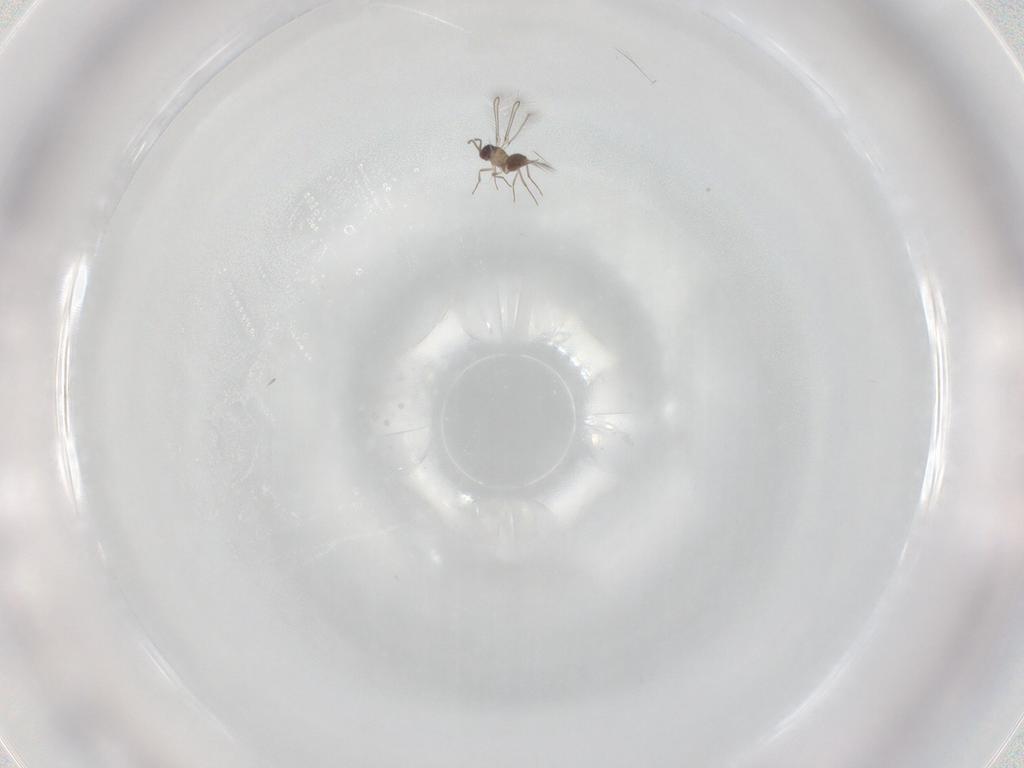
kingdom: Animalia
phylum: Arthropoda
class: Insecta
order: Hymenoptera
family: Mymaridae
